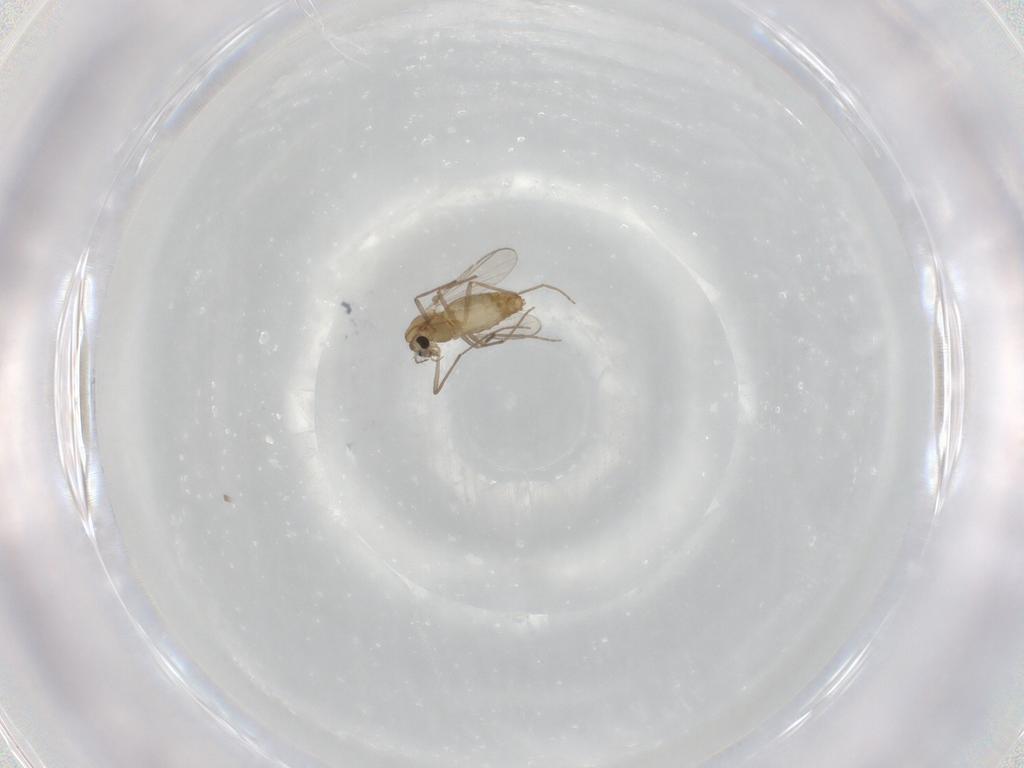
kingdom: Animalia
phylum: Arthropoda
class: Insecta
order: Diptera
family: Chironomidae
